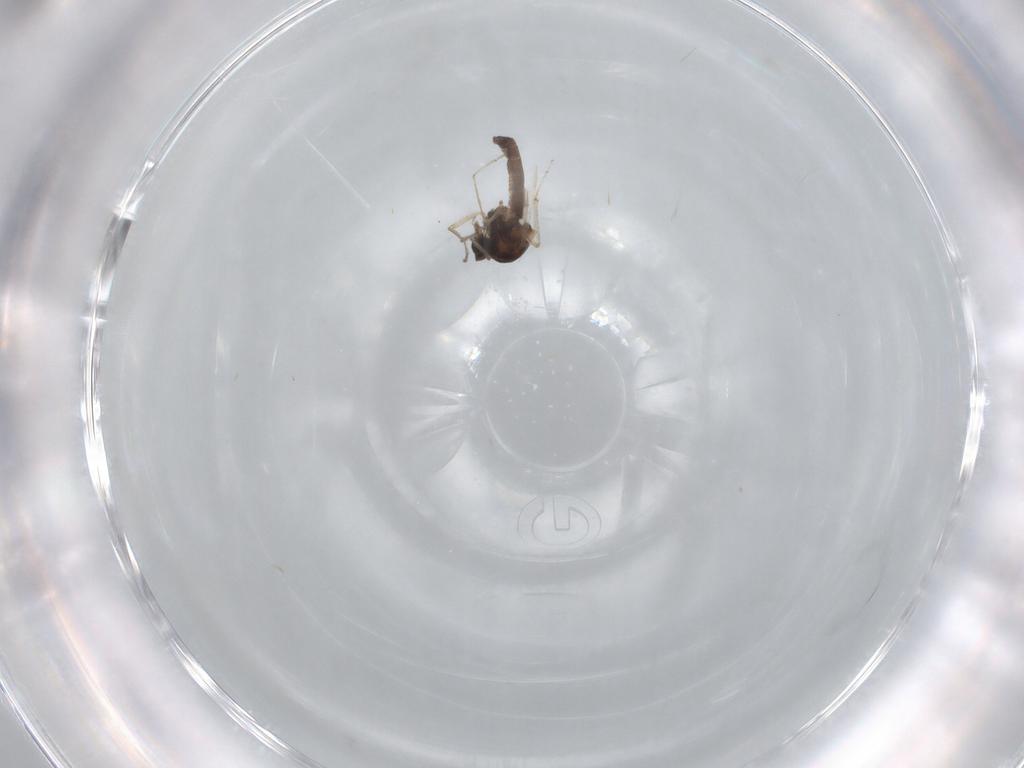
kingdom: Animalia
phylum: Arthropoda
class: Insecta
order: Diptera
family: Ceratopogonidae
